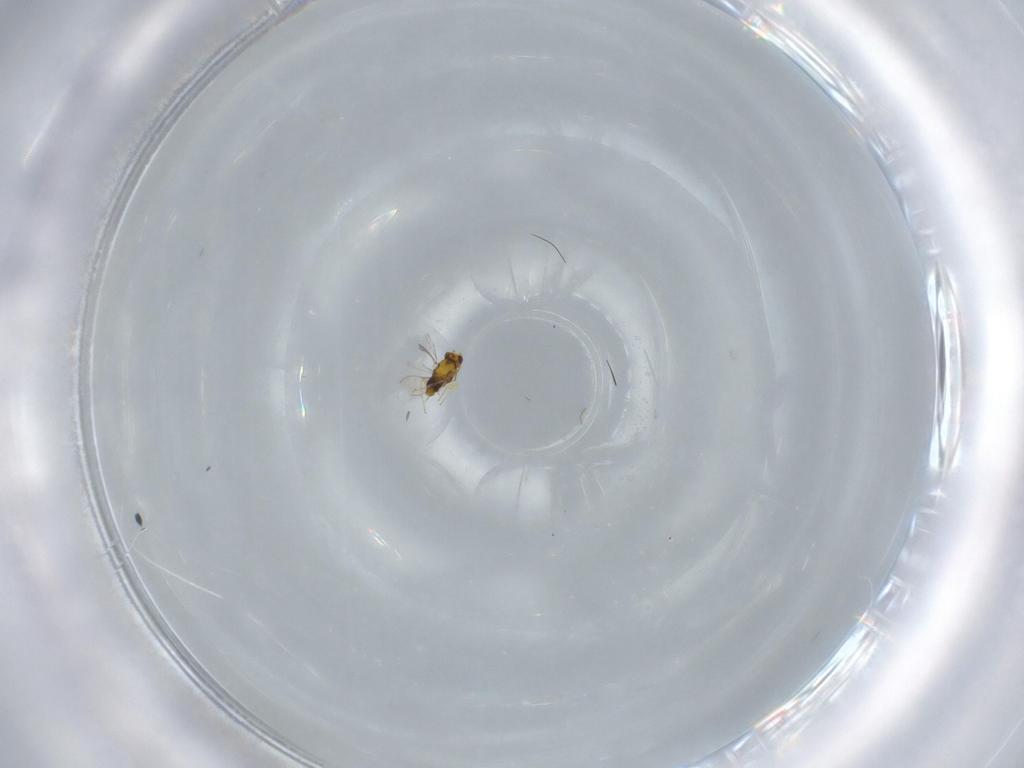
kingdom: Animalia
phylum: Arthropoda
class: Insecta
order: Hymenoptera
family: Aphelinidae
